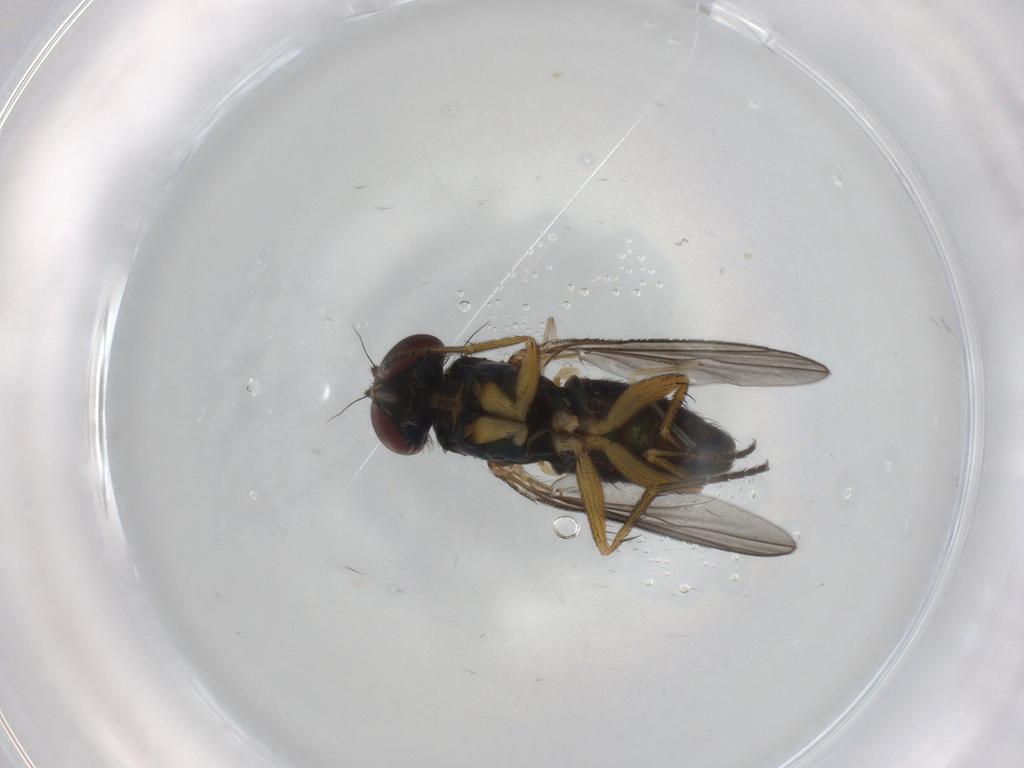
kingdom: Animalia
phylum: Arthropoda
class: Insecta
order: Diptera
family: Psychodidae
